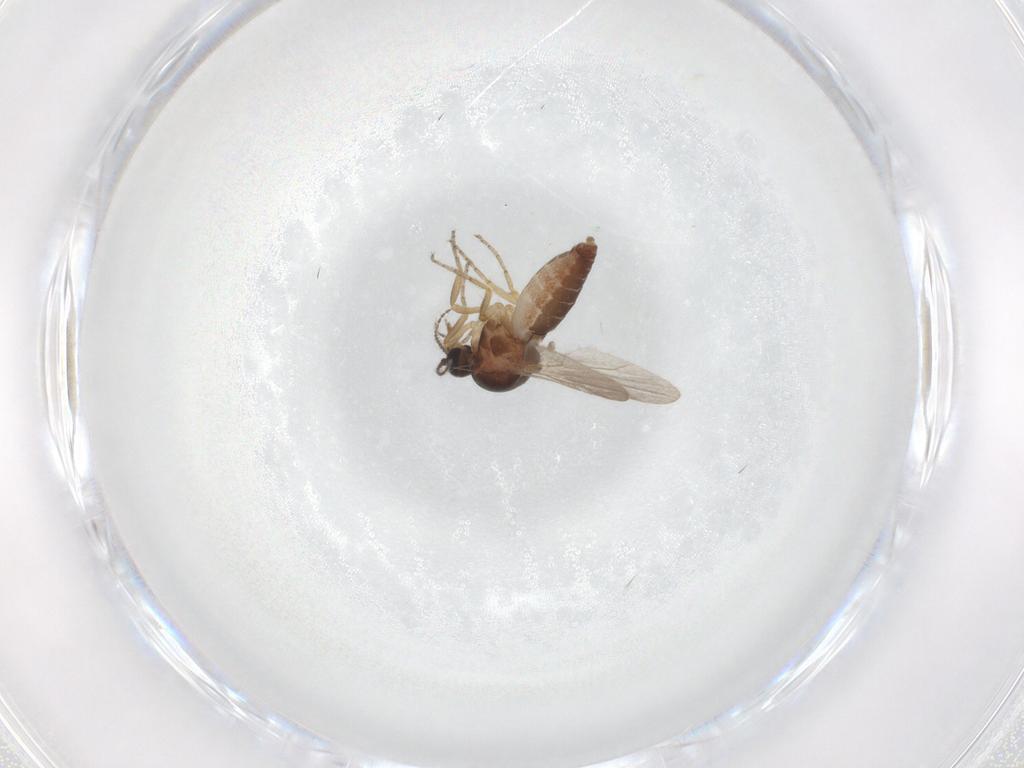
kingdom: Animalia
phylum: Arthropoda
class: Insecta
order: Diptera
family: Ceratopogonidae
